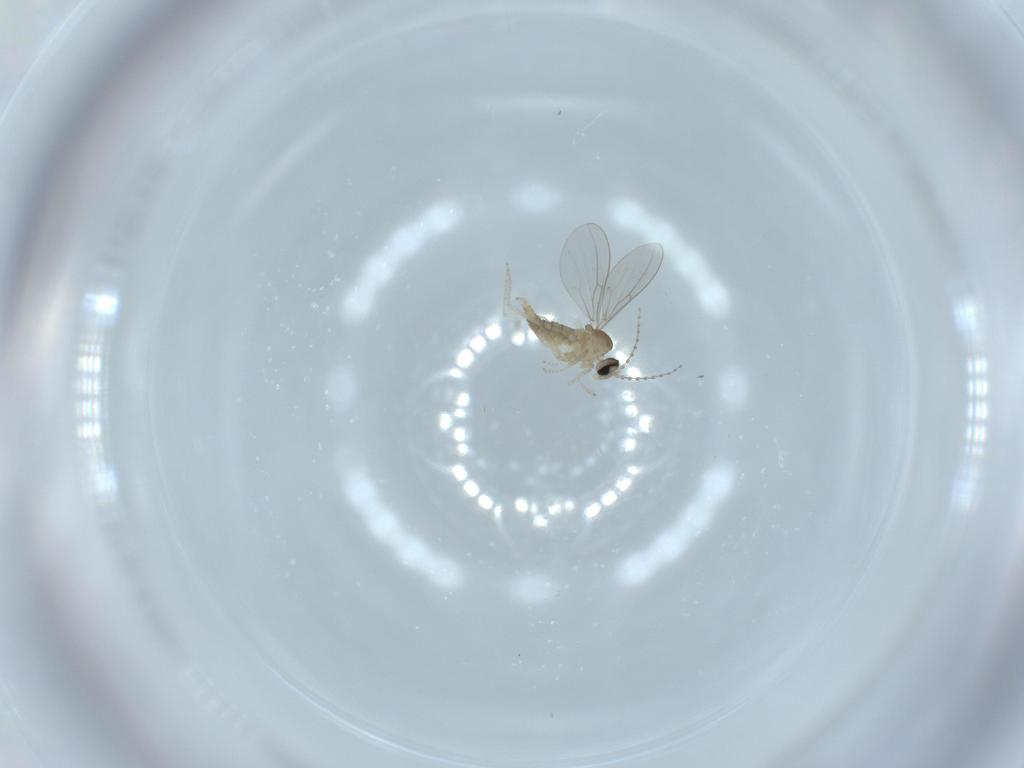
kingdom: Animalia
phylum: Arthropoda
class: Insecta
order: Diptera
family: Cecidomyiidae
